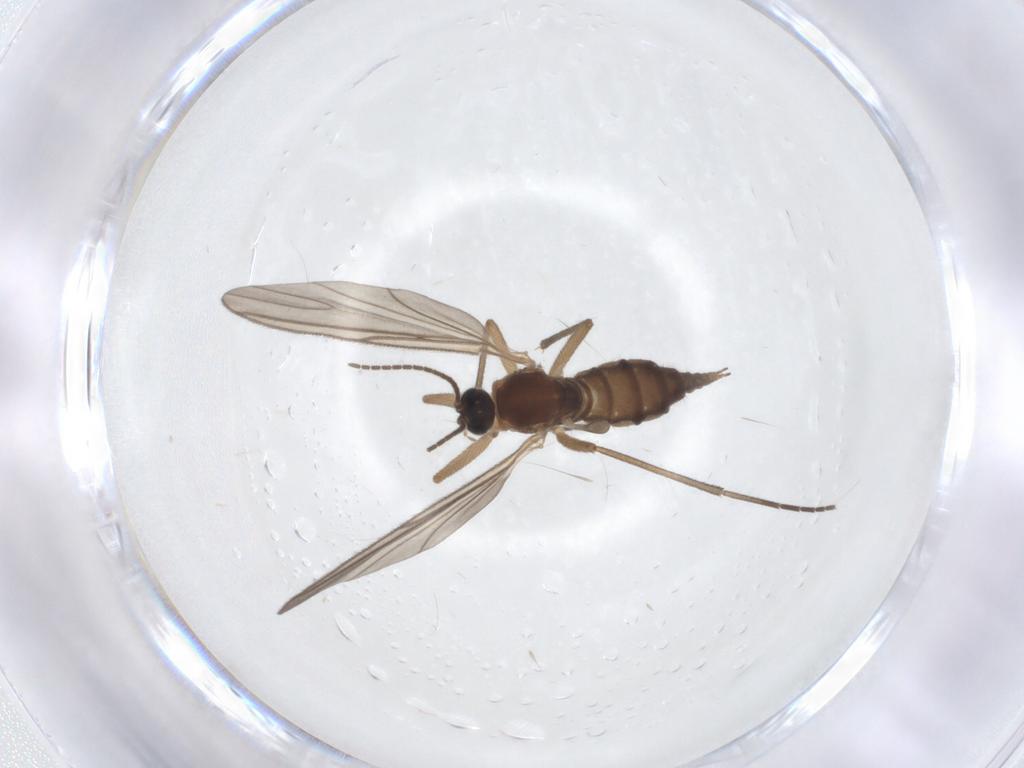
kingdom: Animalia
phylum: Arthropoda
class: Insecta
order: Diptera
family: Sciaridae
